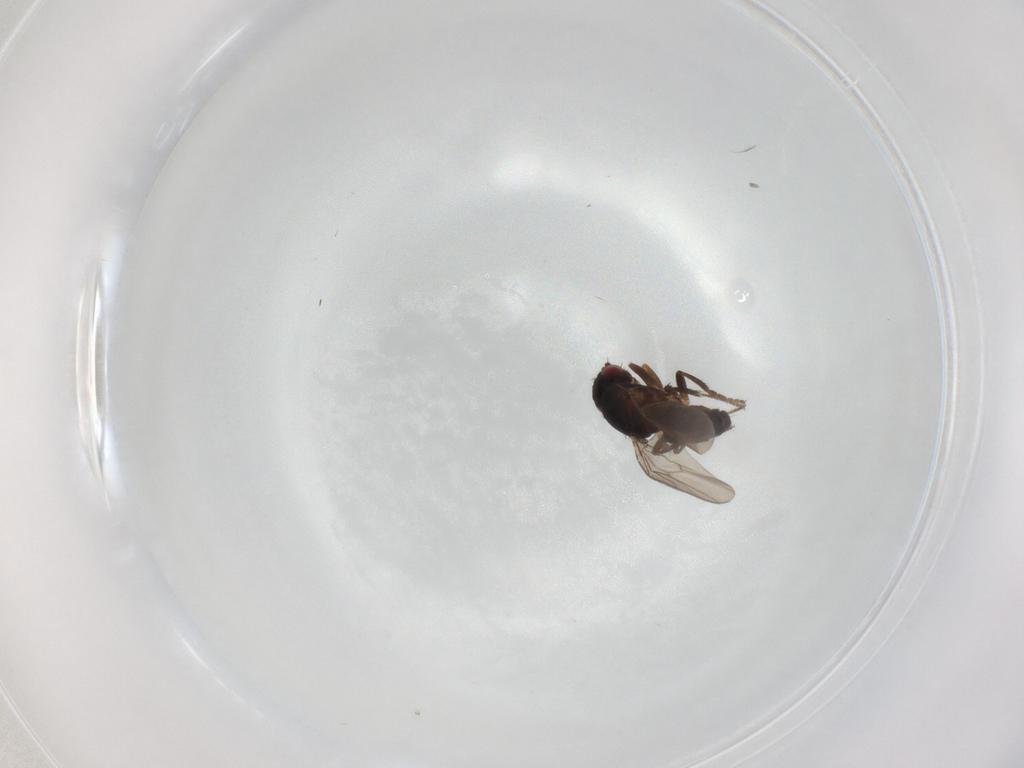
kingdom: Animalia
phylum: Arthropoda
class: Insecta
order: Diptera
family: Sphaeroceridae
